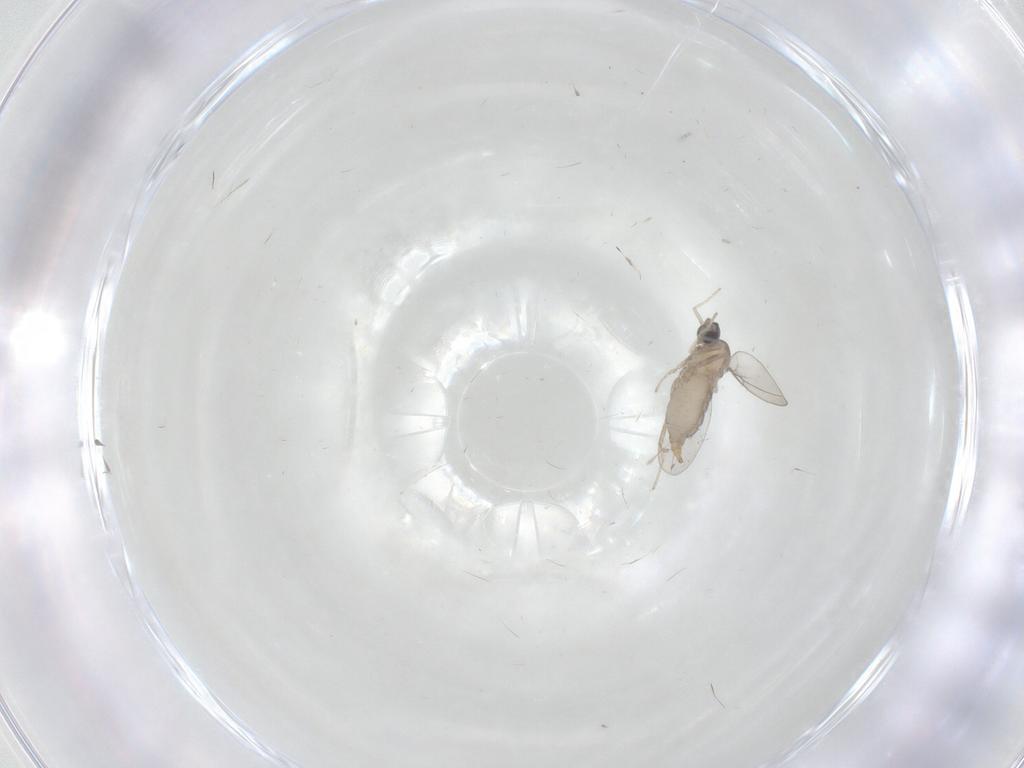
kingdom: Animalia
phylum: Arthropoda
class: Insecta
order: Diptera
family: Cecidomyiidae
